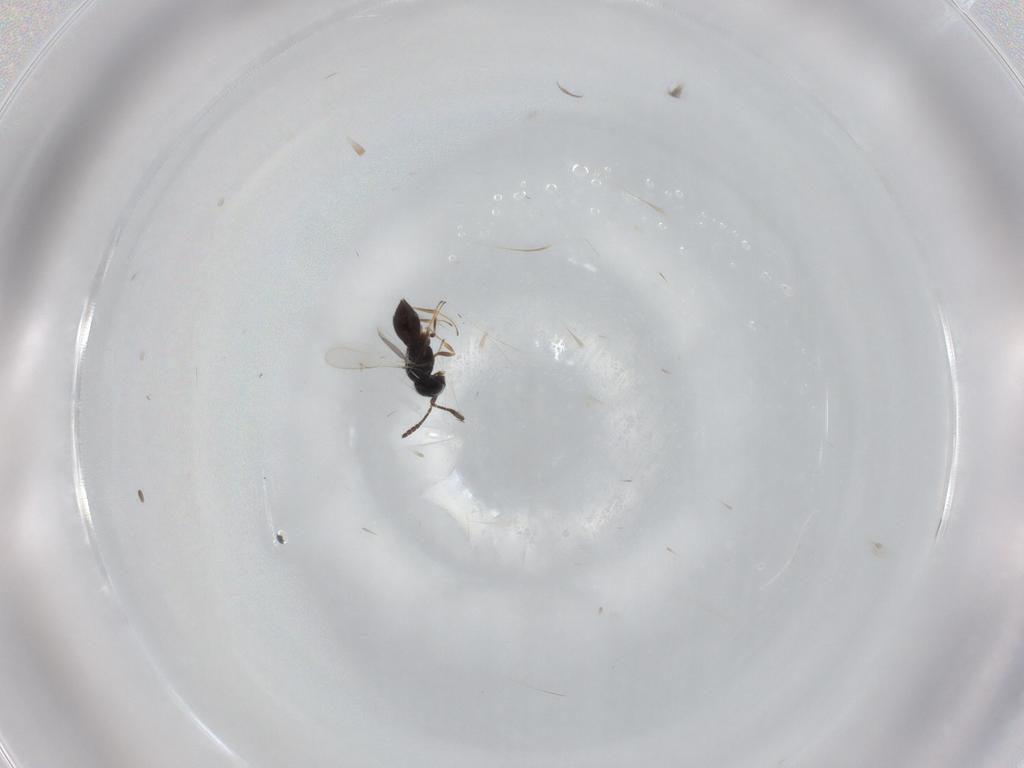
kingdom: Animalia
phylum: Arthropoda
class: Insecta
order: Hymenoptera
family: Scelionidae
